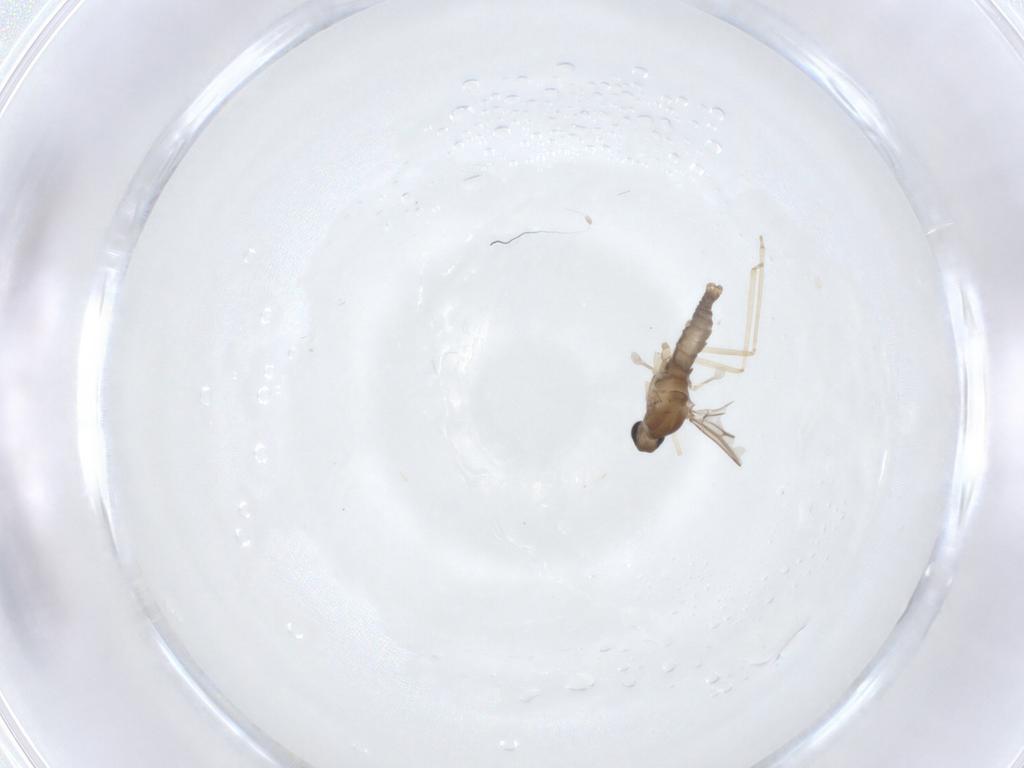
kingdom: Animalia
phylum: Arthropoda
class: Insecta
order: Diptera
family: Cecidomyiidae
